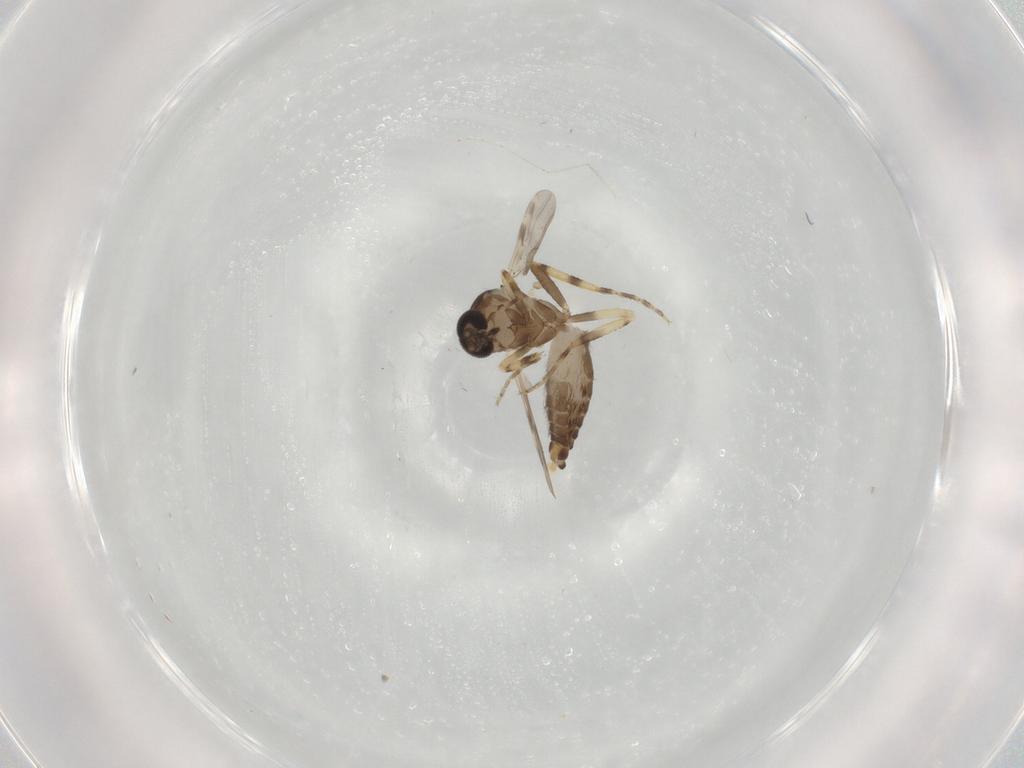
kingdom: Animalia
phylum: Arthropoda
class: Insecta
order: Diptera
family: Ceratopogonidae
